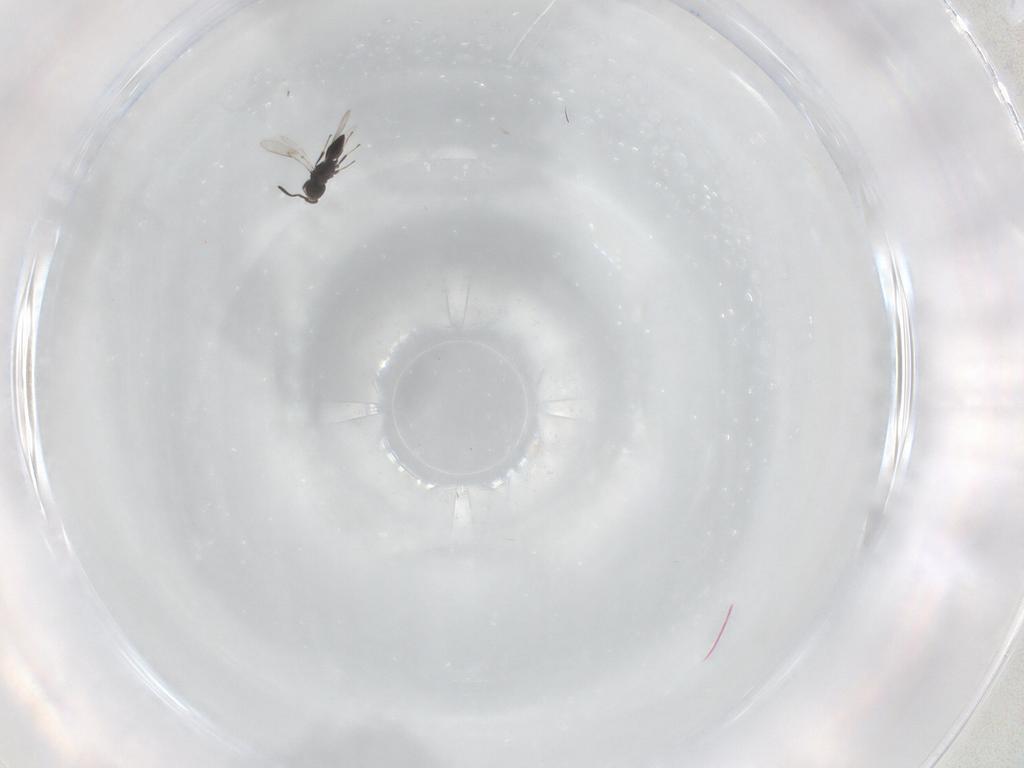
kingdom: Animalia
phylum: Arthropoda
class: Insecta
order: Hymenoptera
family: Scelionidae
